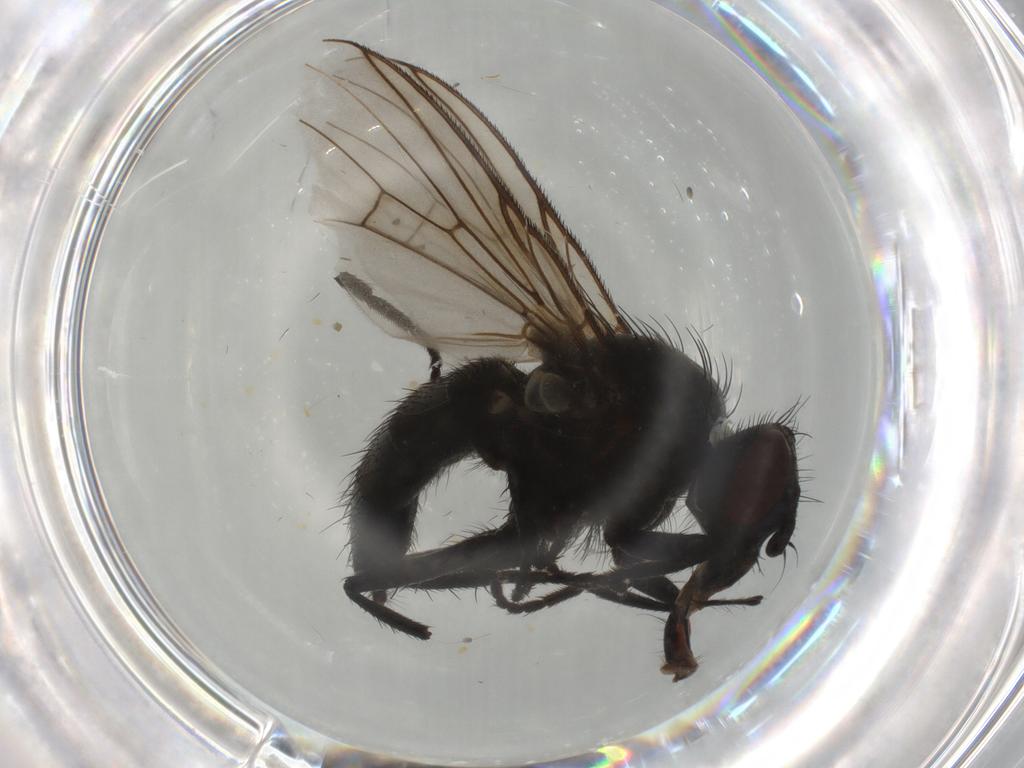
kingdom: Animalia
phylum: Arthropoda
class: Insecta
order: Diptera
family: Muscidae
